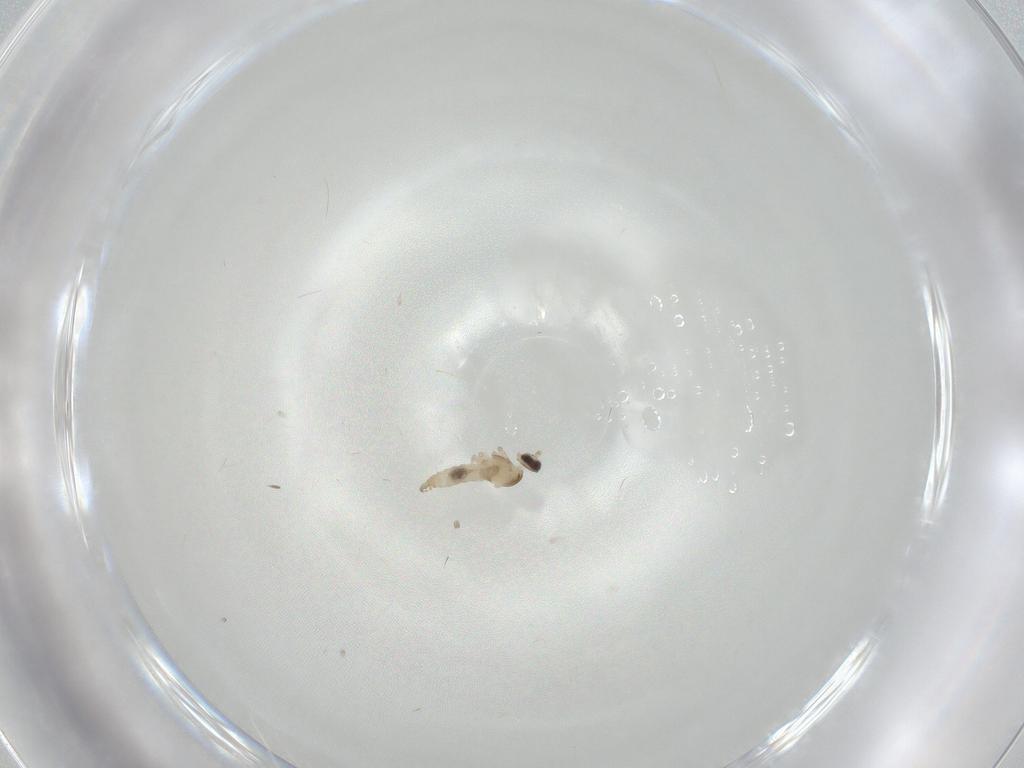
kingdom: Animalia
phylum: Arthropoda
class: Insecta
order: Diptera
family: Cecidomyiidae
